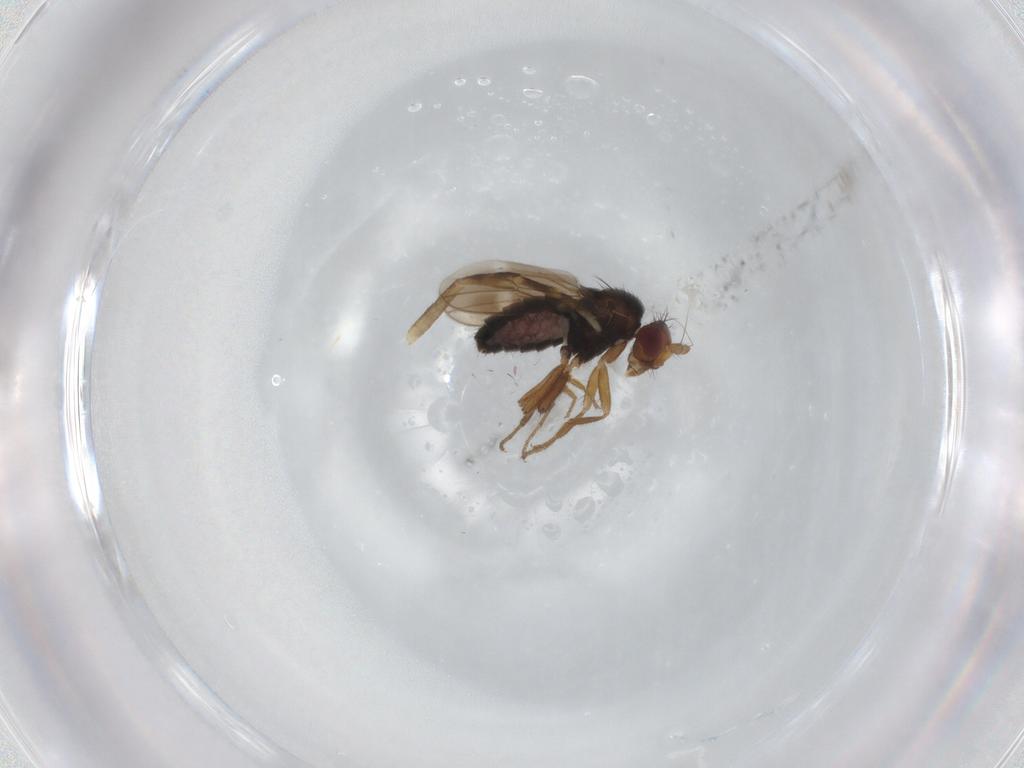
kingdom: Animalia
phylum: Arthropoda
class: Insecta
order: Diptera
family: Sphaeroceridae
